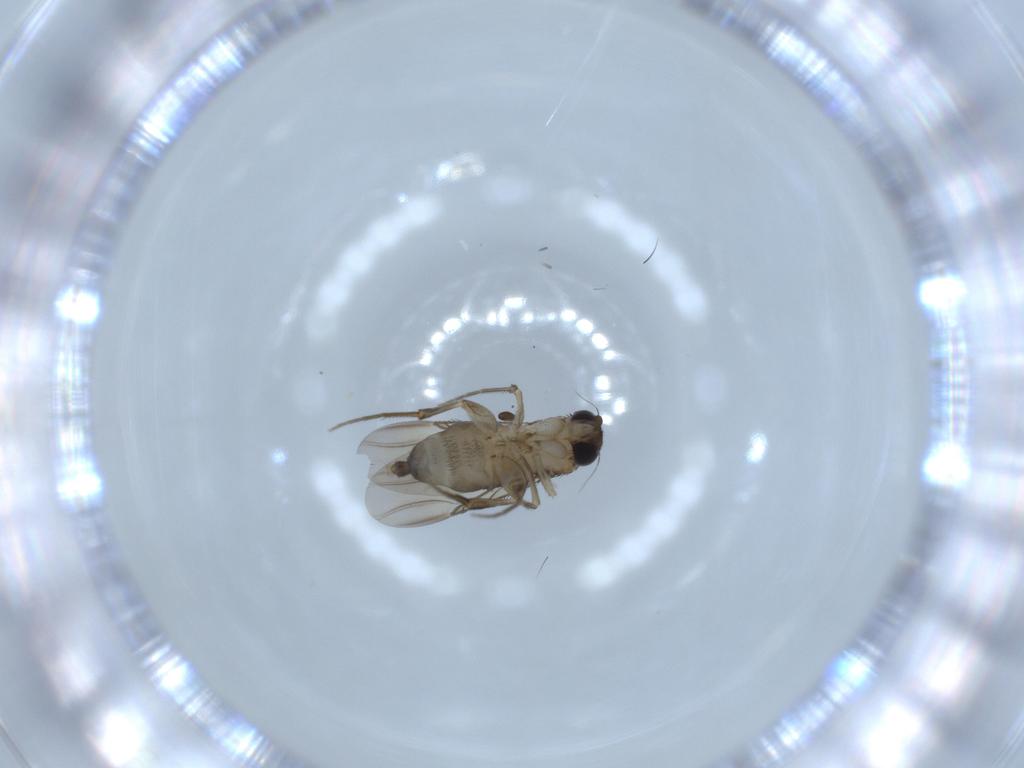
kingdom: Animalia
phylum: Arthropoda
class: Insecta
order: Diptera
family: Phoridae
